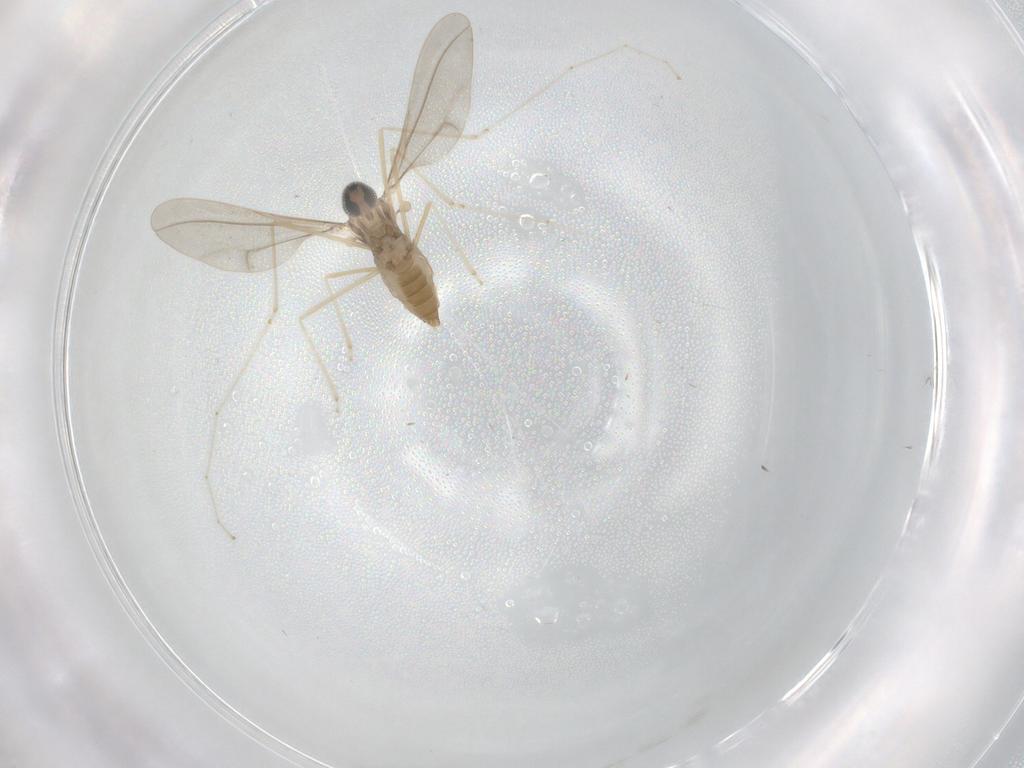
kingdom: Animalia
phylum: Arthropoda
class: Insecta
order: Diptera
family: Cecidomyiidae
